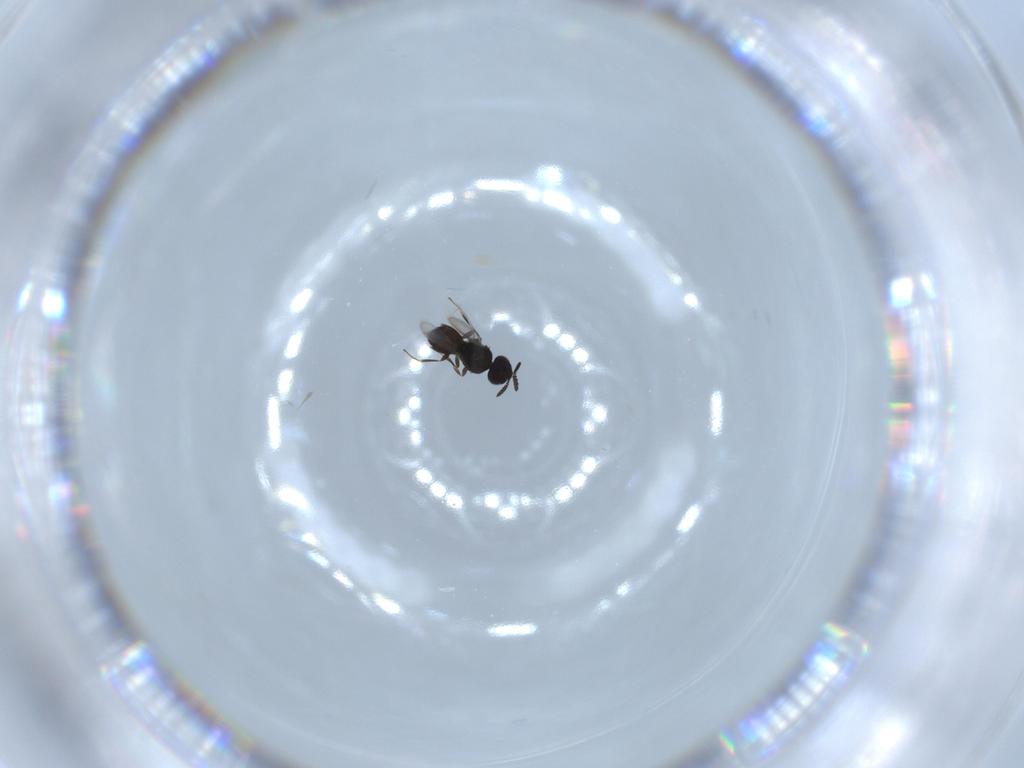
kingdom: Animalia
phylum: Arthropoda
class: Insecta
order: Hymenoptera
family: Scelionidae
